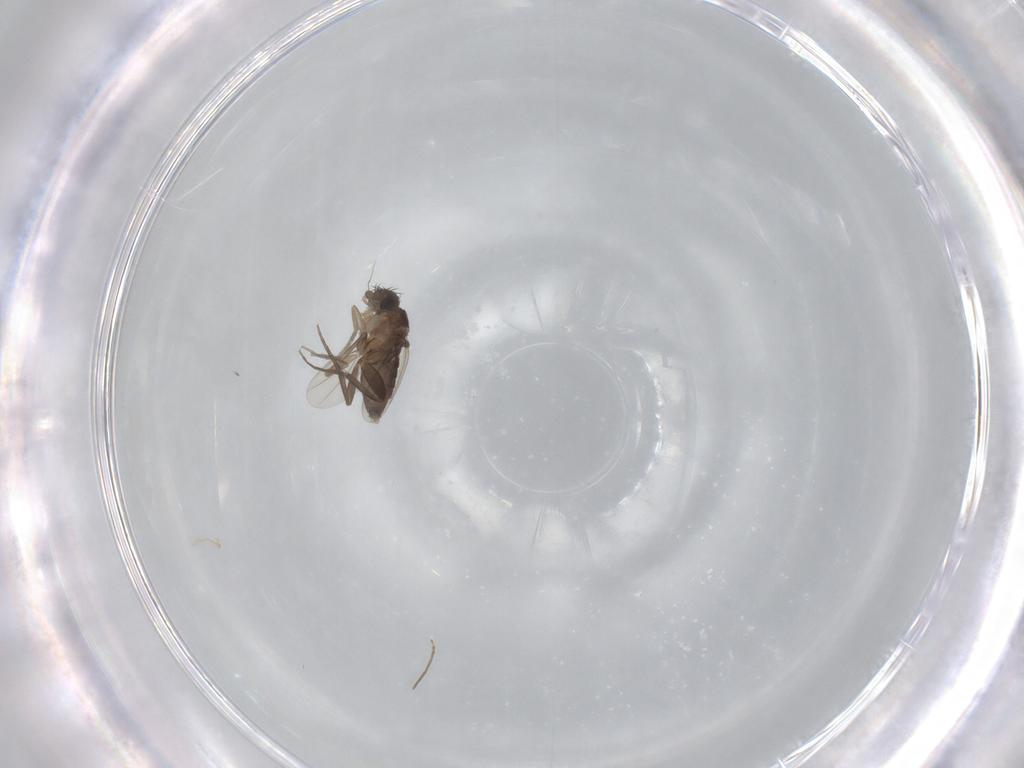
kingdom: Animalia
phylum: Arthropoda
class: Insecta
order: Diptera
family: Phoridae
